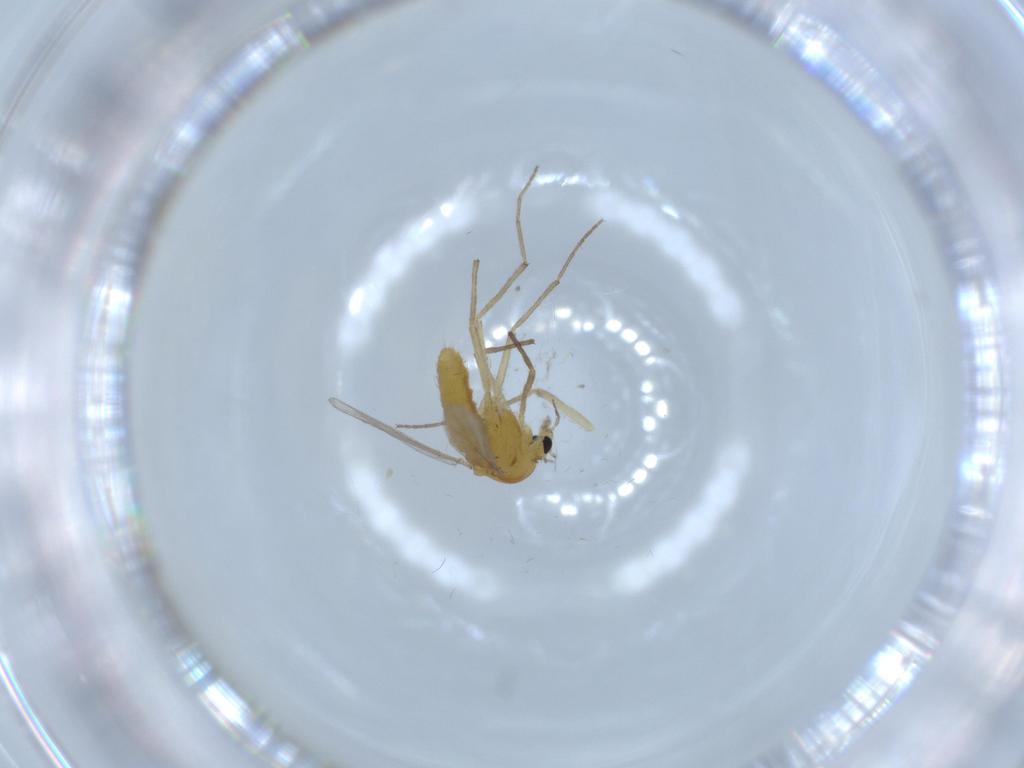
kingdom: Animalia
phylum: Arthropoda
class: Insecta
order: Diptera
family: Chironomidae
